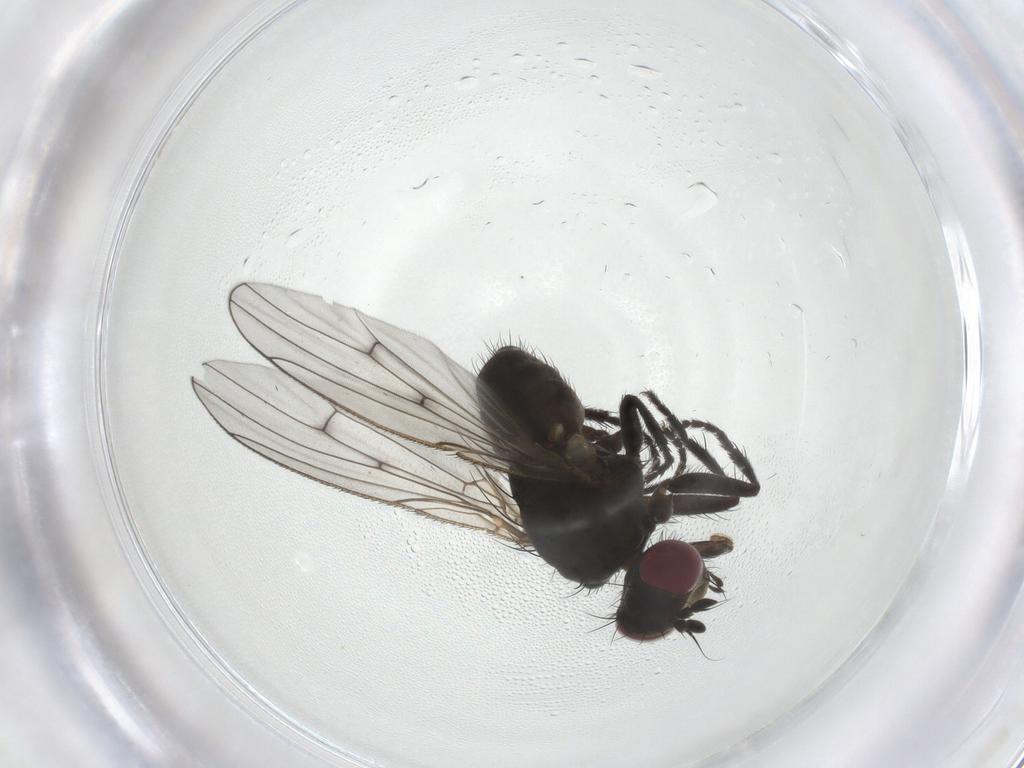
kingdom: Animalia
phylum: Arthropoda
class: Insecta
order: Diptera
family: Muscidae
